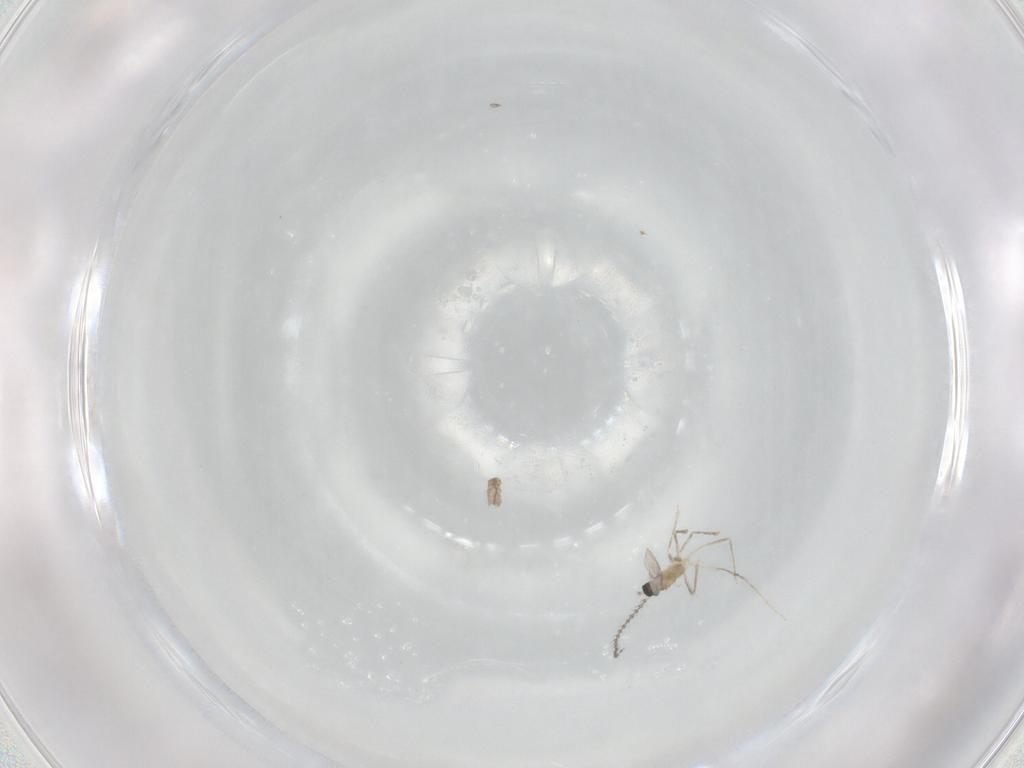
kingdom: Animalia
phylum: Arthropoda
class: Insecta
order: Diptera
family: Cecidomyiidae
